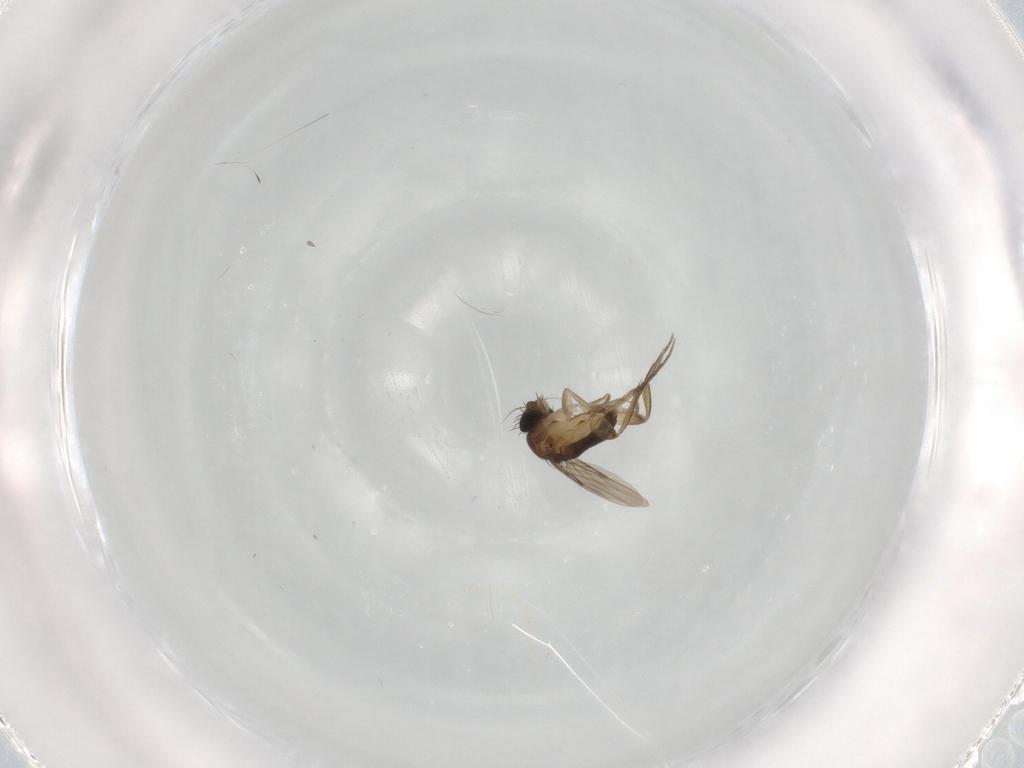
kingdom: Animalia
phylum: Arthropoda
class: Insecta
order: Diptera
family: Phoridae
